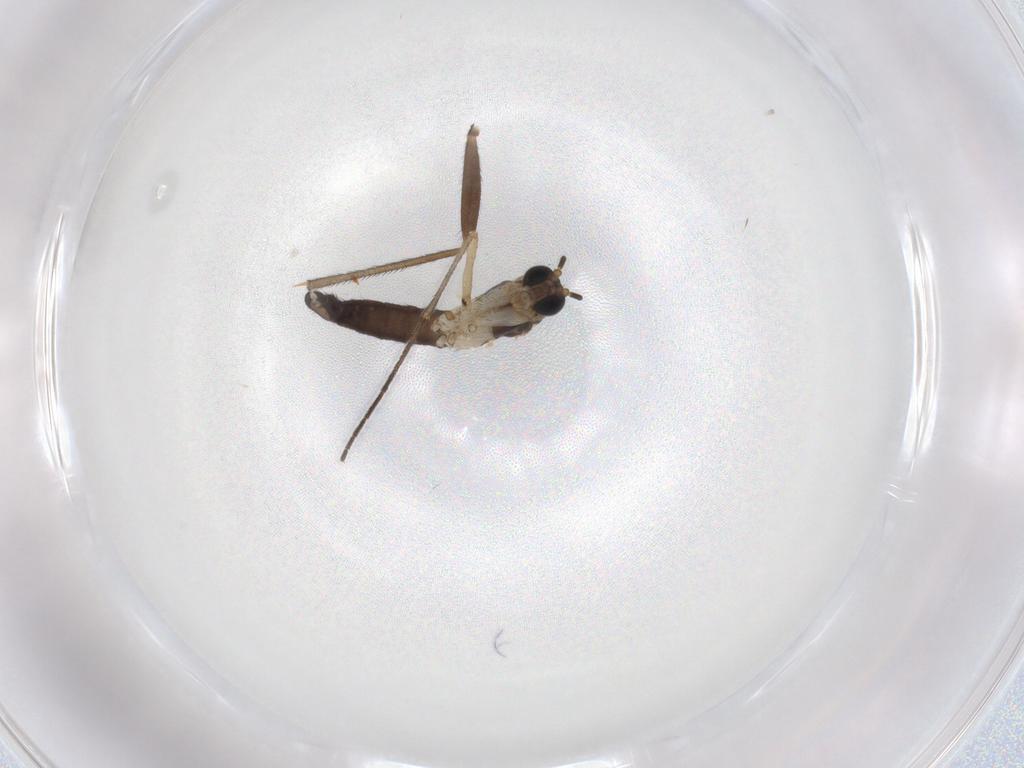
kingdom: Animalia
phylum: Arthropoda
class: Insecta
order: Diptera
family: Sciaridae
